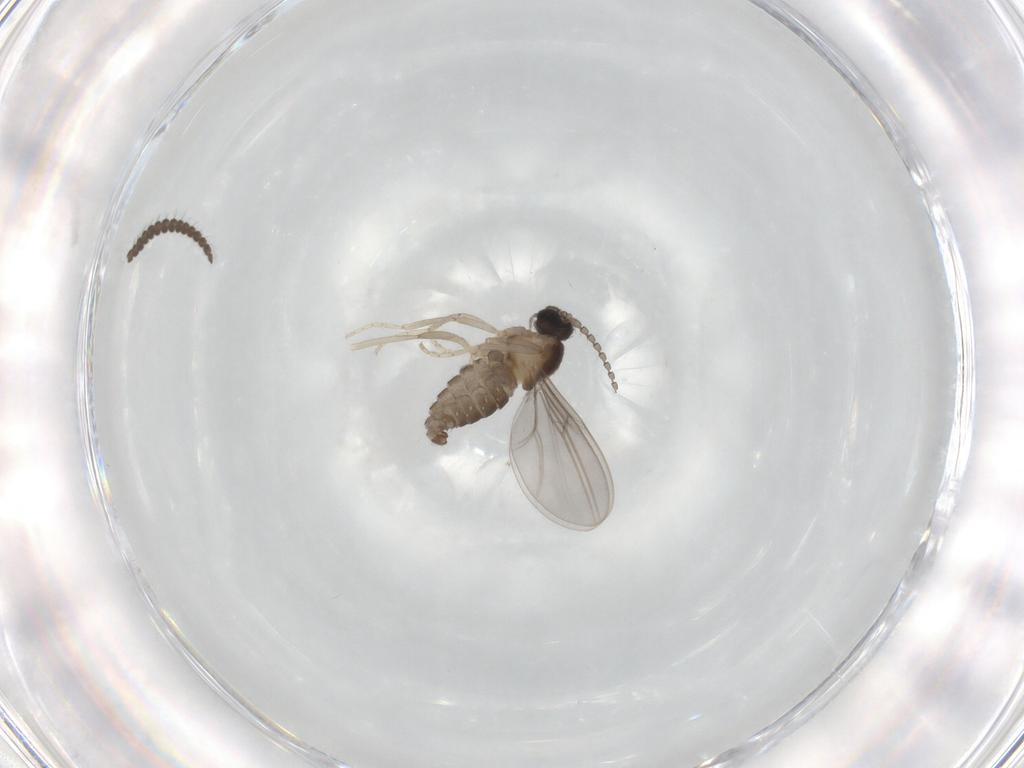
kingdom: Animalia
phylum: Arthropoda
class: Insecta
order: Diptera
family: Cecidomyiidae
